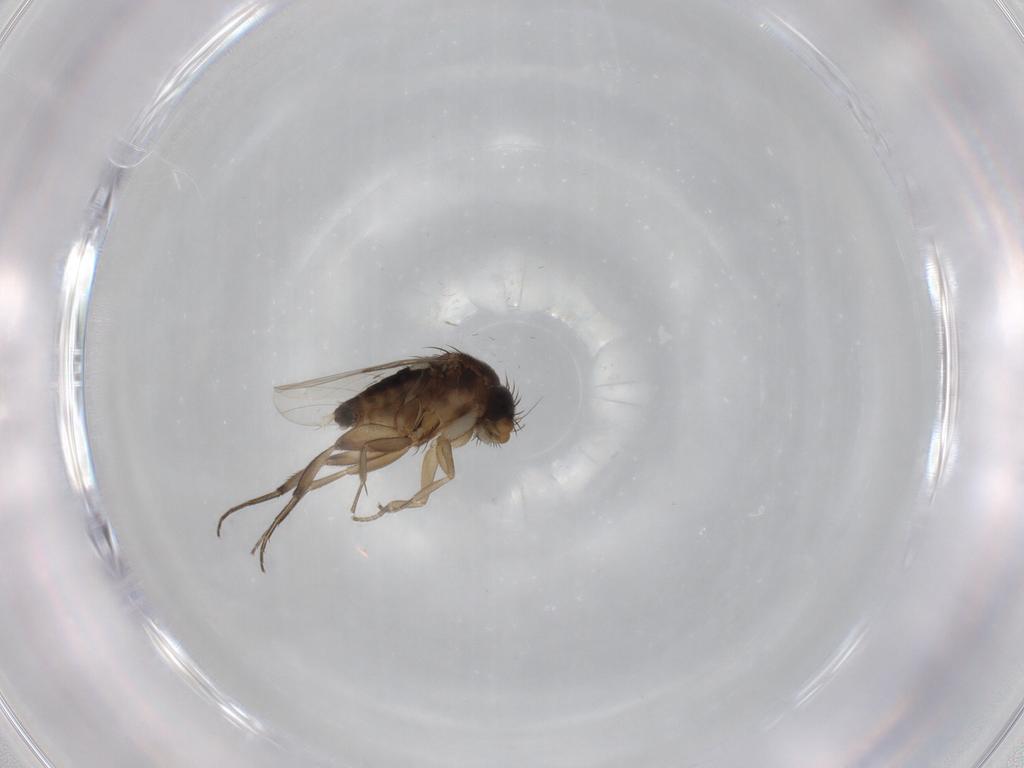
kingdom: Animalia
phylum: Arthropoda
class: Insecta
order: Diptera
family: Phoridae
